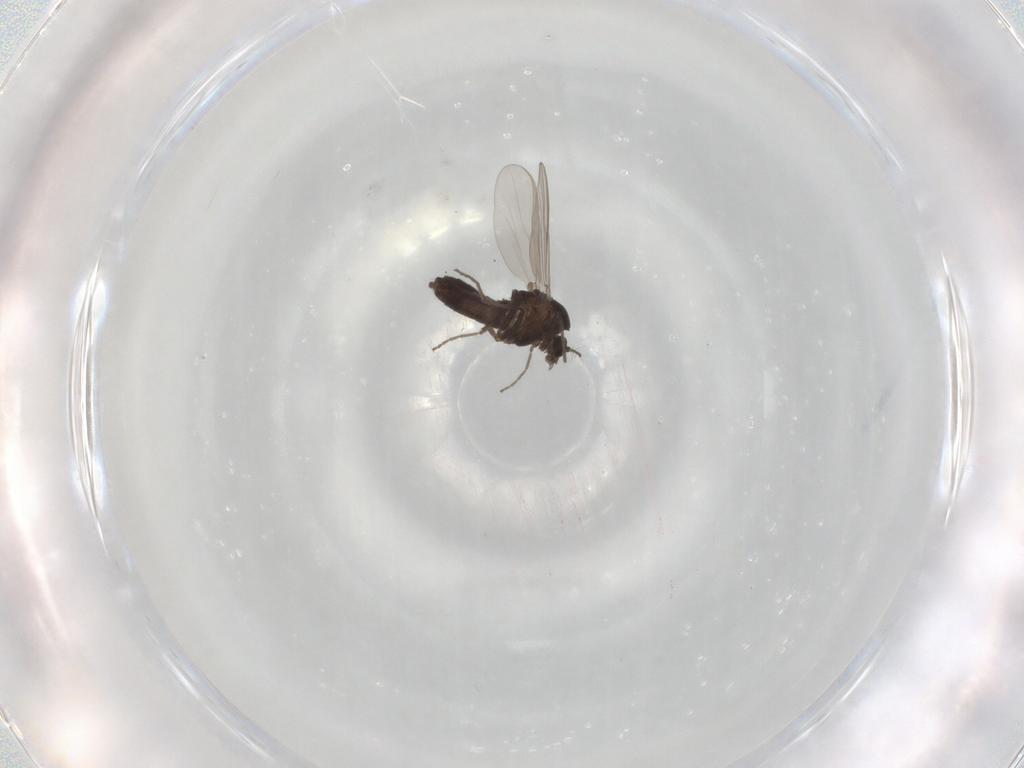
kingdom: Animalia
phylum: Arthropoda
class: Insecta
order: Diptera
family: Chironomidae
